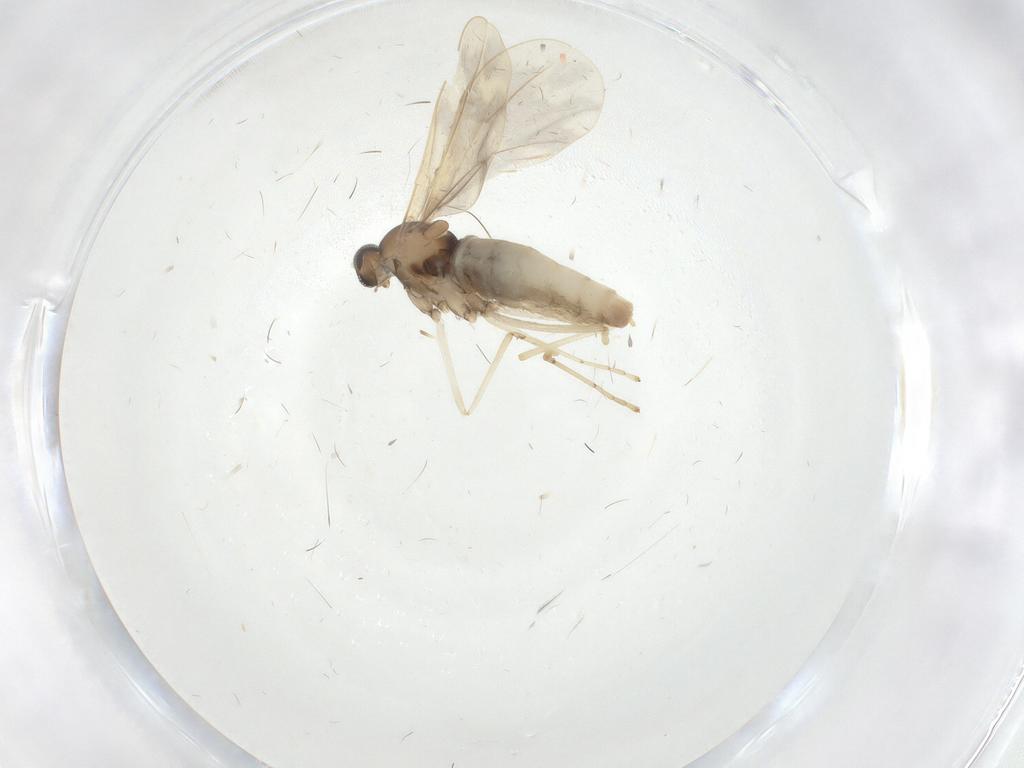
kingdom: Animalia
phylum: Arthropoda
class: Insecta
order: Diptera
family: Cecidomyiidae
